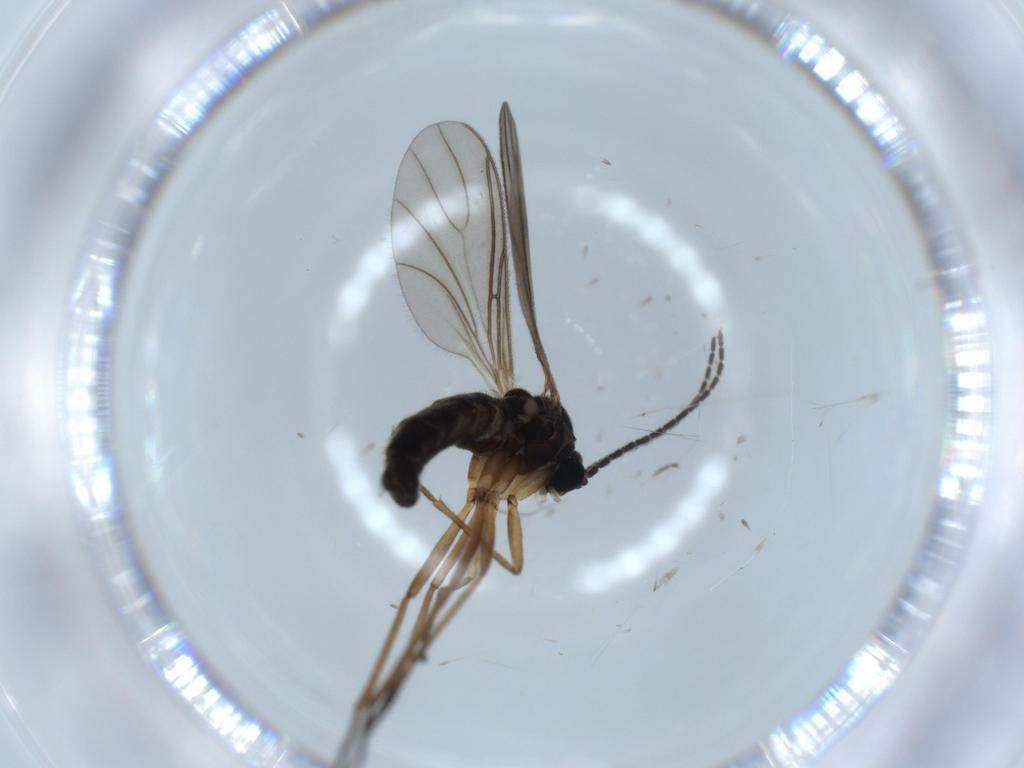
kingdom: Animalia
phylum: Arthropoda
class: Insecta
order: Diptera
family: Sciaridae
